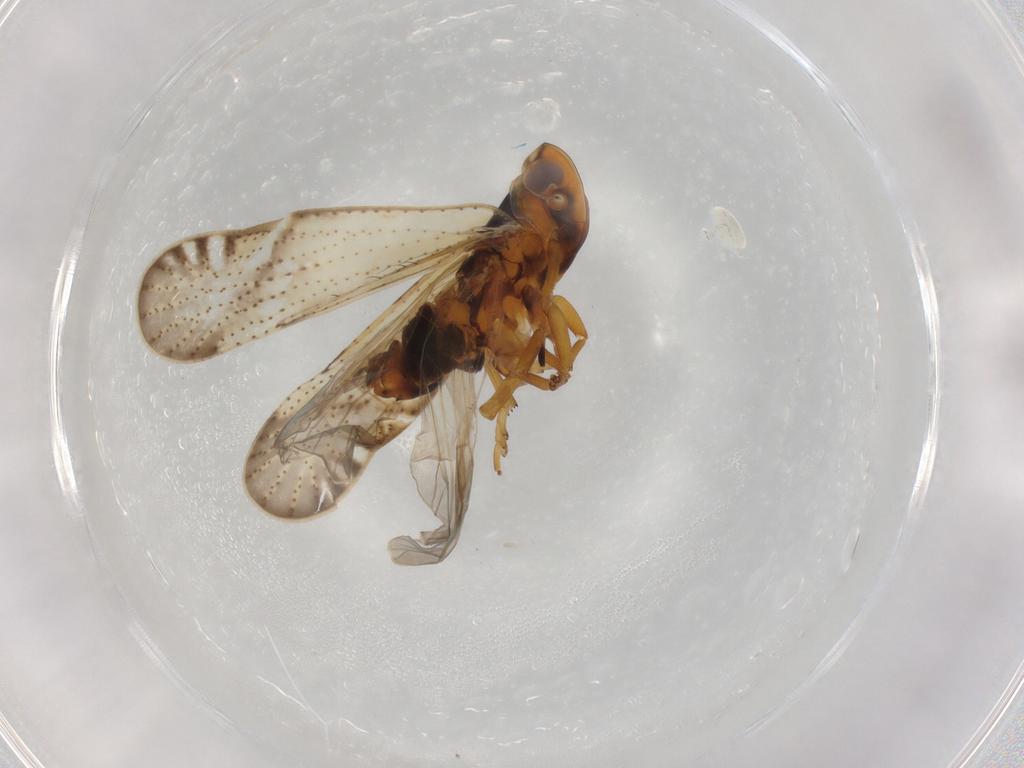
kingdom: Animalia
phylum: Arthropoda
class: Insecta
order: Hemiptera
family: Cixiidae
